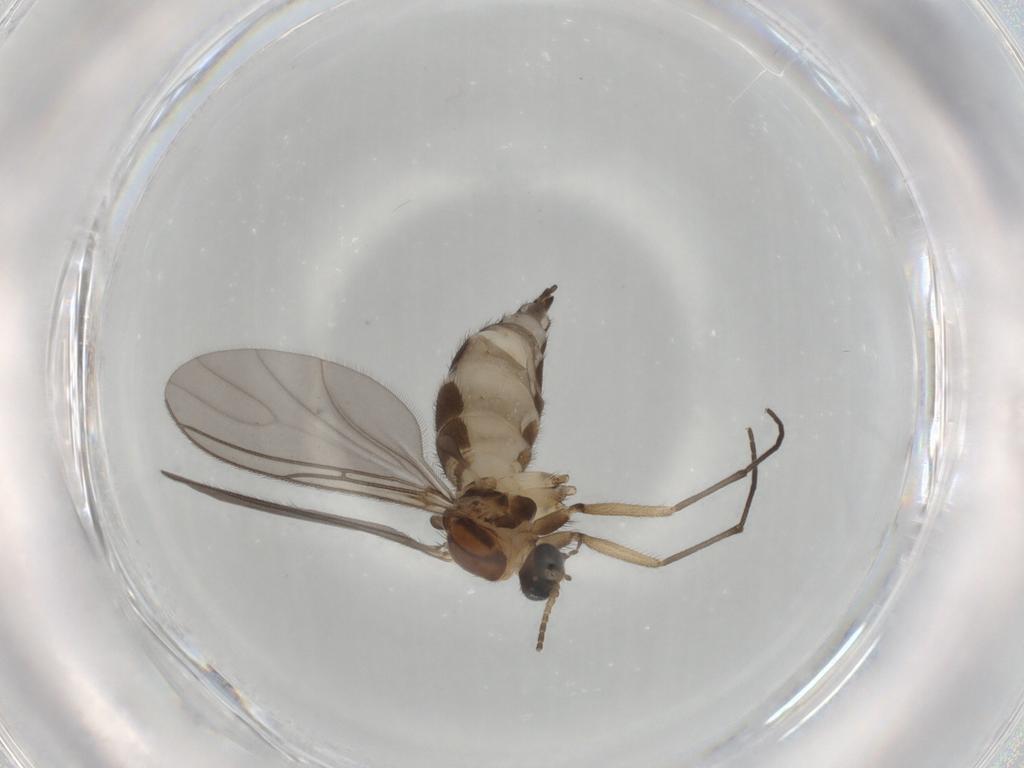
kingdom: Animalia
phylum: Arthropoda
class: Insecta
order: Diptera
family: Sciaridae
